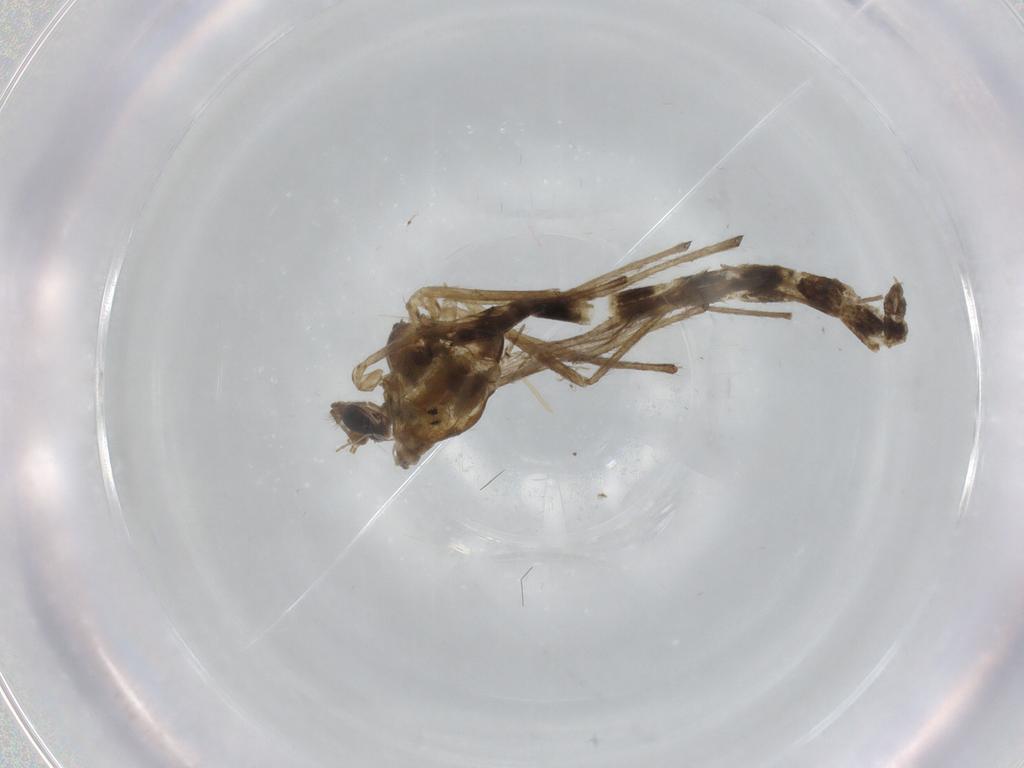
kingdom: Animalia
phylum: Arthropoda
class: Insecta
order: Diptera
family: Chironomidae
